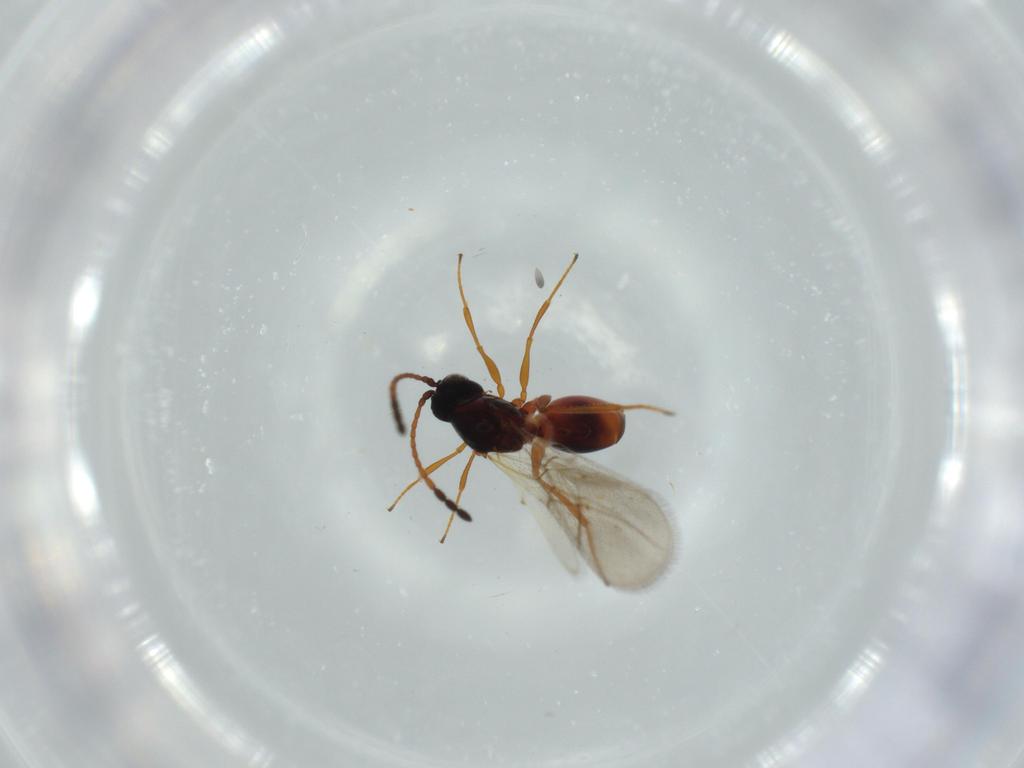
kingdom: Animalia
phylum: Arthropoda
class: Insecta
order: Hymenoptera
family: Figitidae
